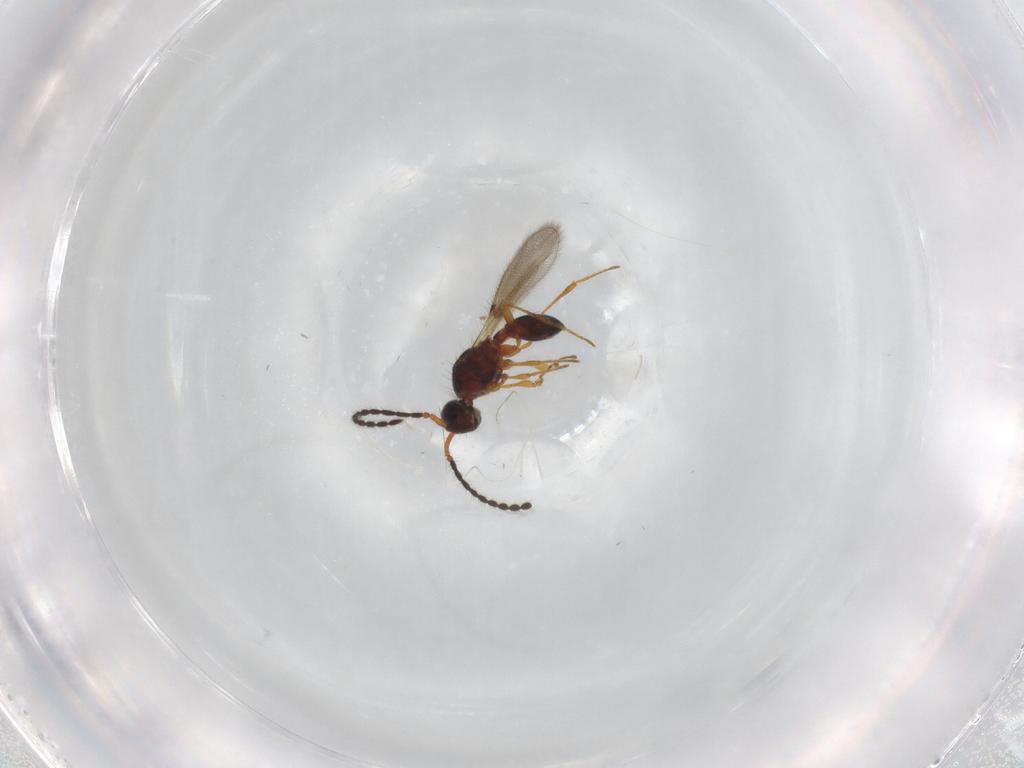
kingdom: Animalia
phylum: Arthropoda
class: Insecta
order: Hymenoptera
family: Diapriidae
